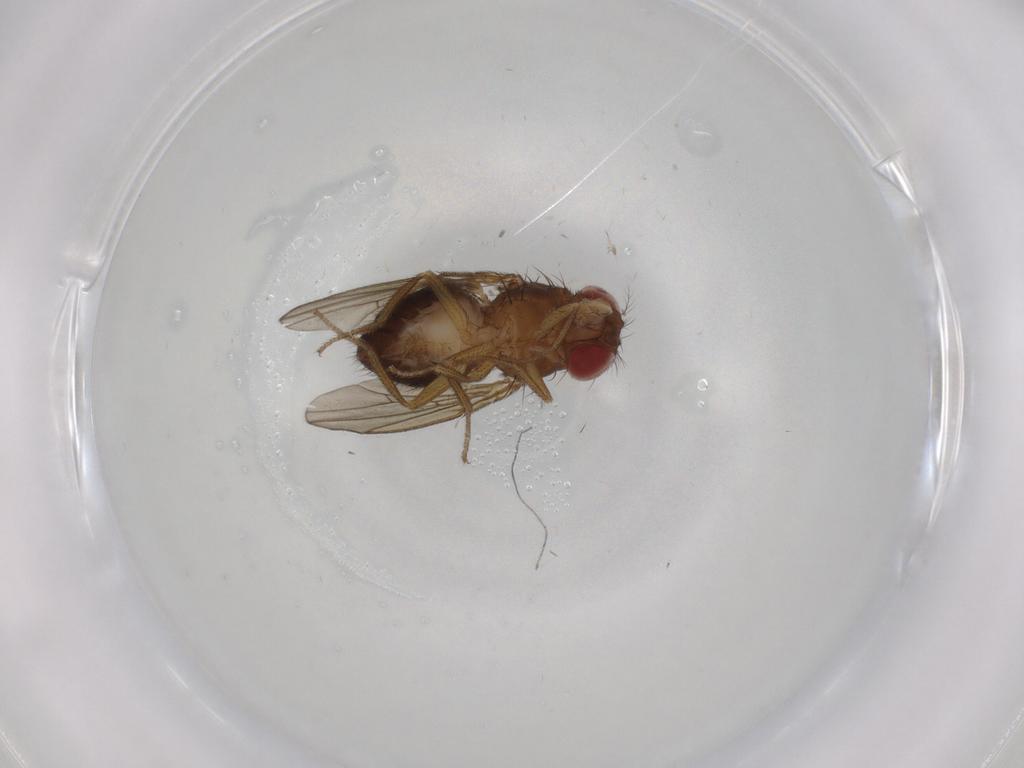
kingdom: Animalia
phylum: Arthropoda
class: Insecta
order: Diptera
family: Drosophilidae
